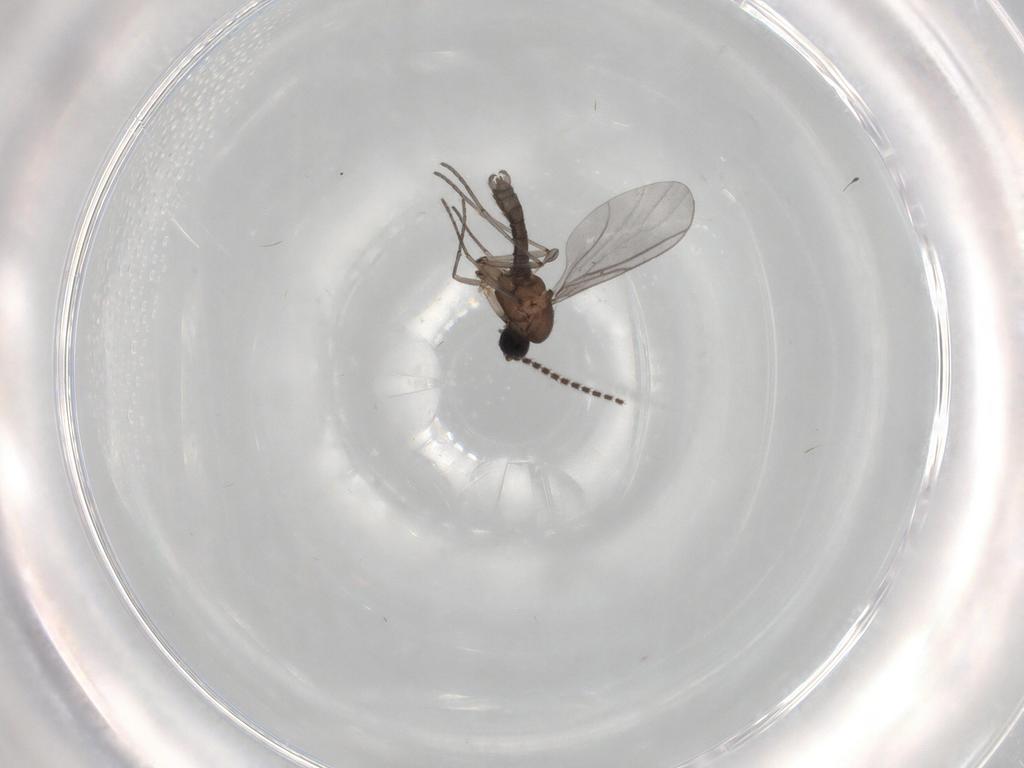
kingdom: Animalia
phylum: Arthropoda
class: Insecta
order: Diptera
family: Sciaridae
